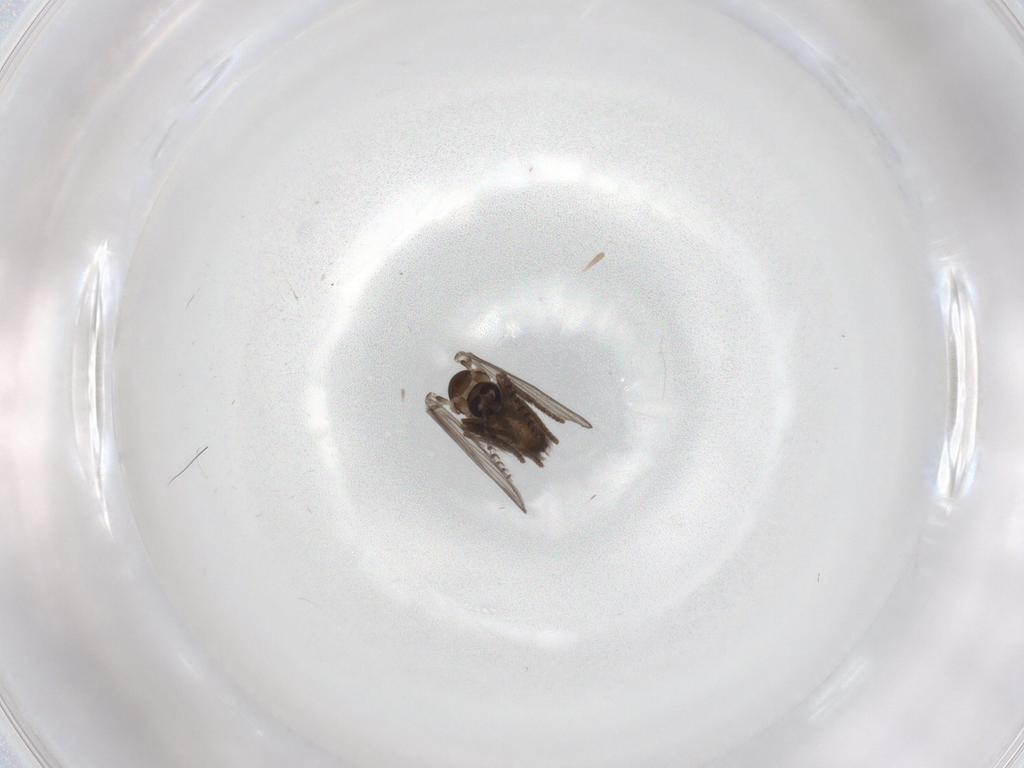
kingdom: Animalia
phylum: Arthropoda
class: Insecta
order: Diptera
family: Psychodidae
